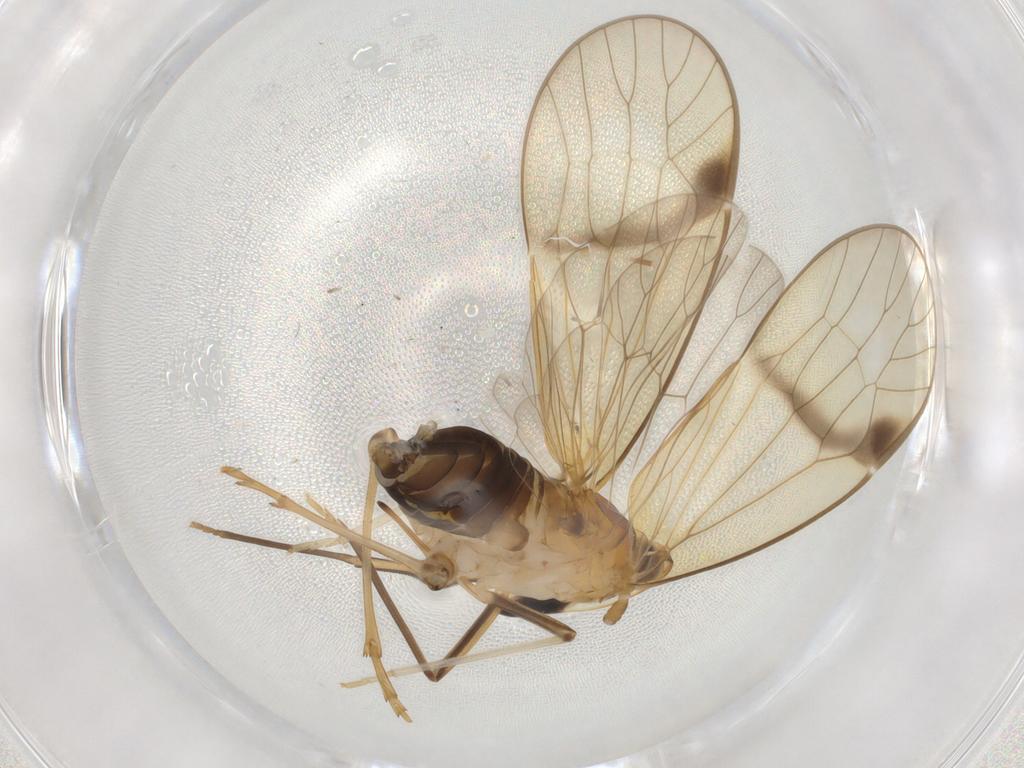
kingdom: Animalia
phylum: Arthropoda
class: Insecta
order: Hemiptera
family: Kinnaridae
